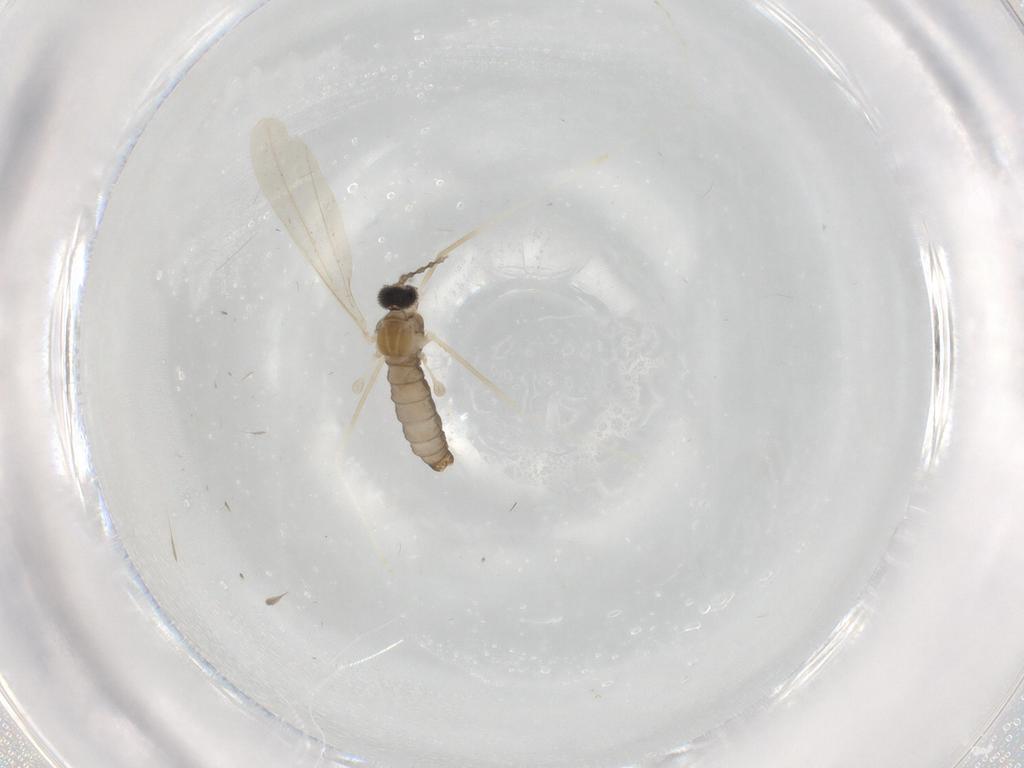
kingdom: Animalia
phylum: Arthropoda
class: Insecta
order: Diptera
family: Cecidomyiidae
